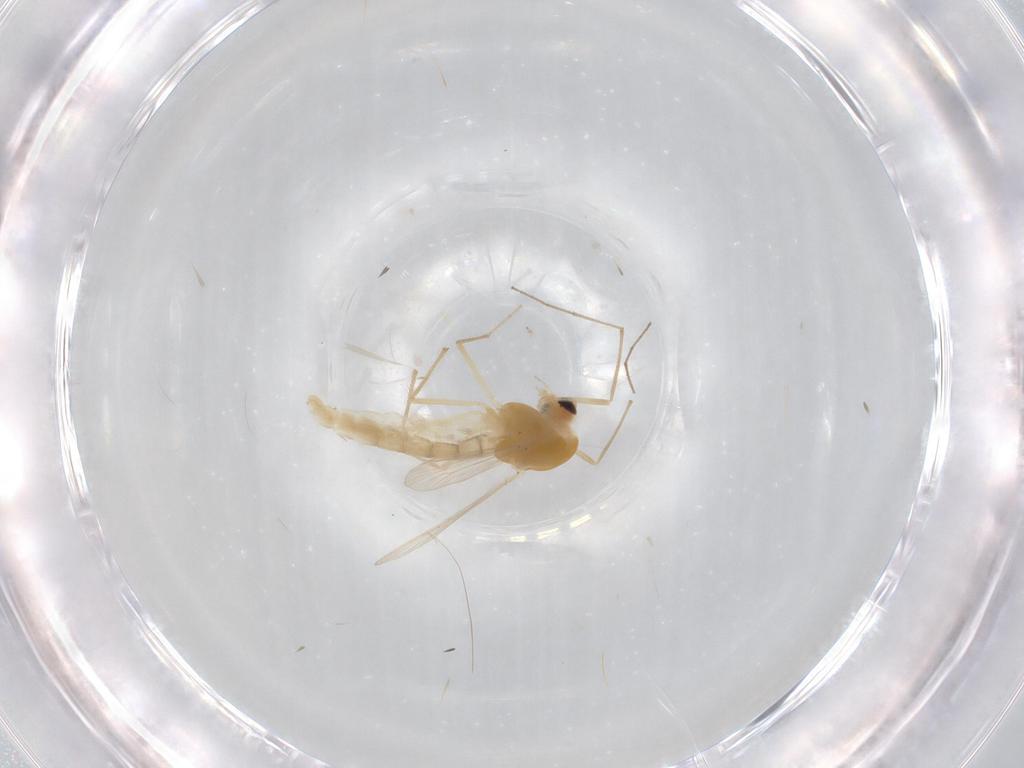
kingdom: Animalia
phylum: Arthropoda
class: Insecta
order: Diptera
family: Chironomidae
